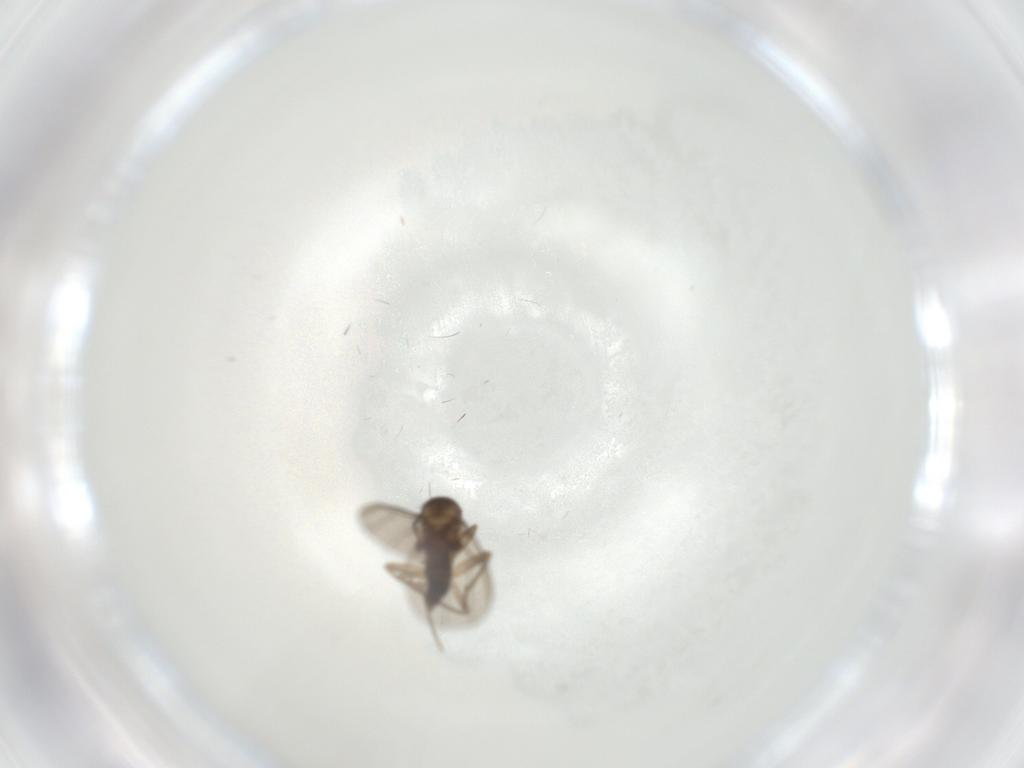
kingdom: Animalia
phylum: Arthropoda
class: Insecta
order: Diptera
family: Phoridae
